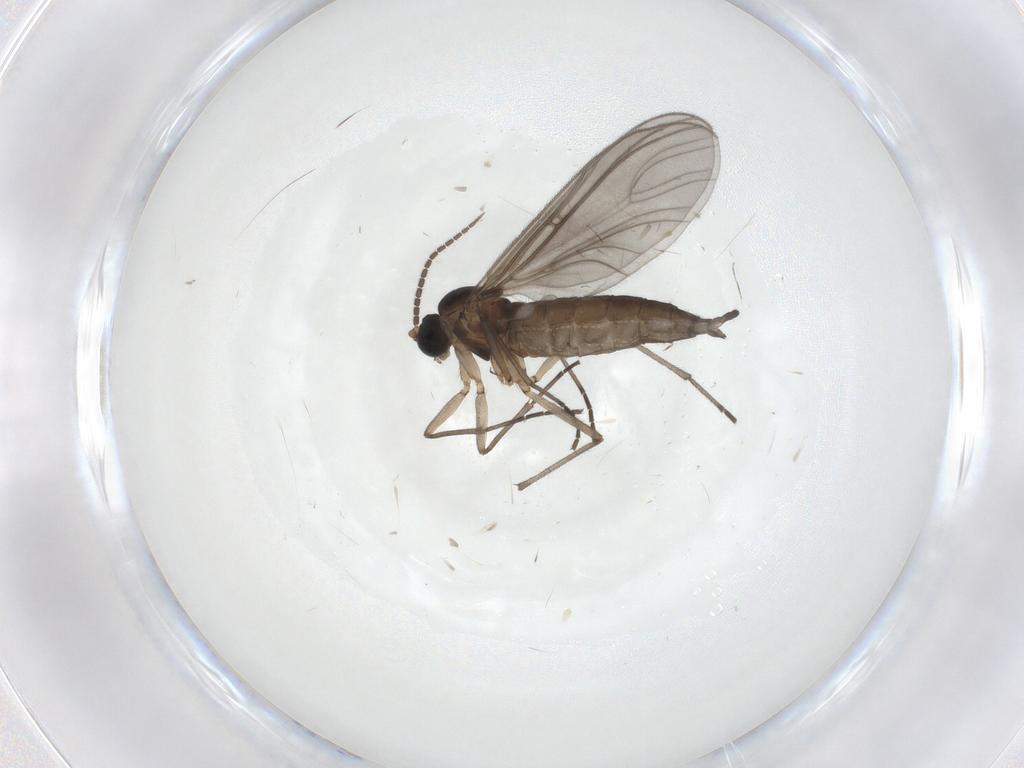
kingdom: Animalia
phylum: Arthropoda
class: Insecta
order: Diptera
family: Sciaridae
